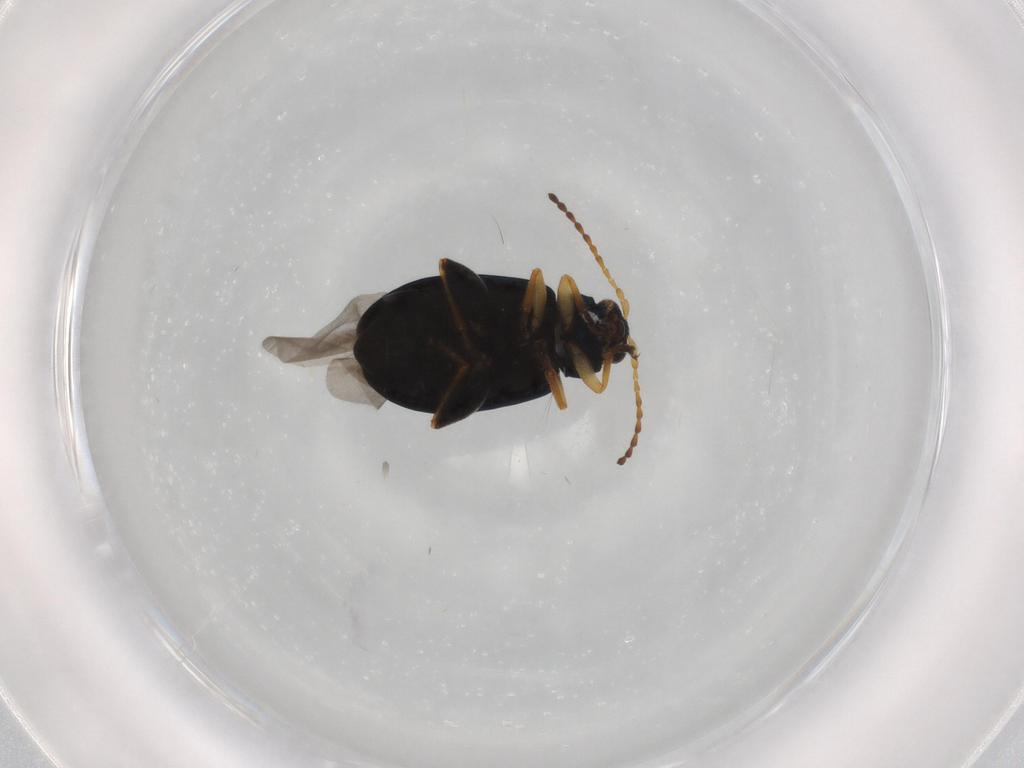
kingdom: Animalia
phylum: Arthropoda
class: Insecta
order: Coleoptera
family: Chrysomelidae
